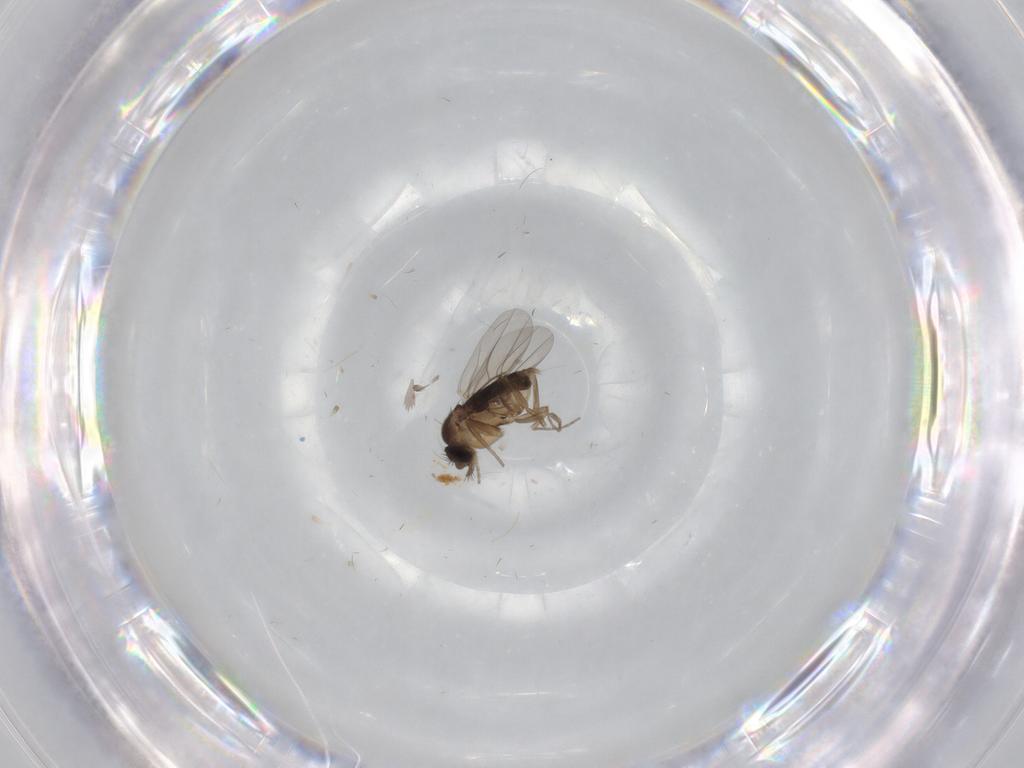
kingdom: Animalia
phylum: Arthropoda
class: Insecta
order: Diptera
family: Phoridae
